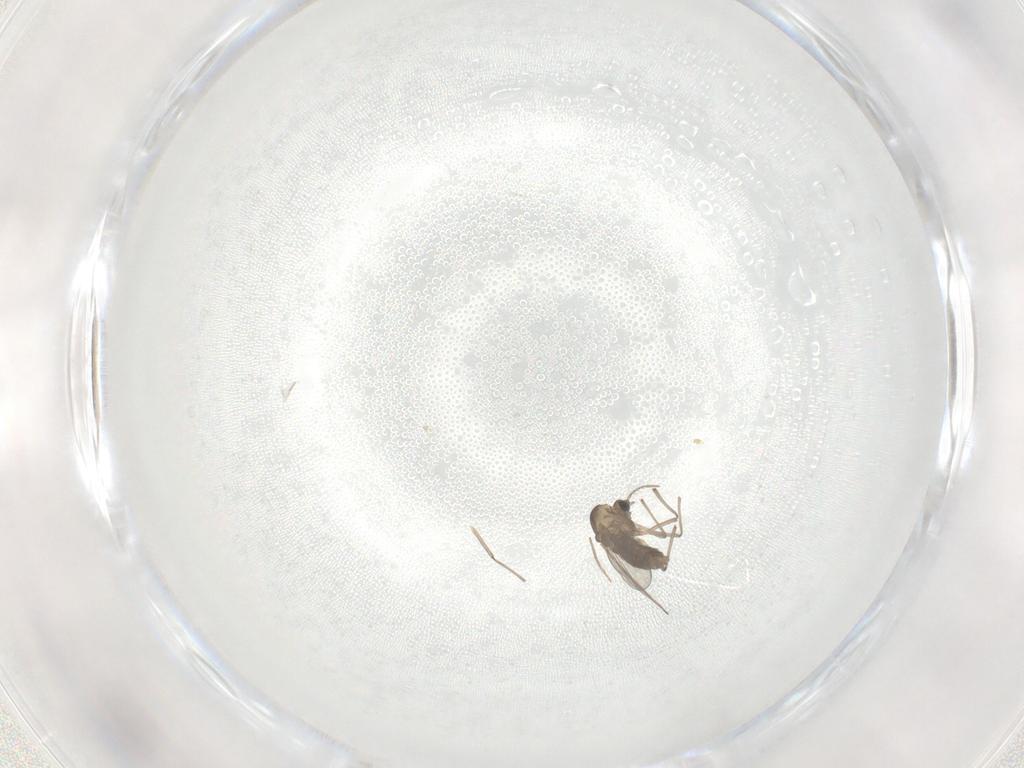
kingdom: Animalia
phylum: Arthropoda
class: Insecta
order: Diptera
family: Chironomidae
